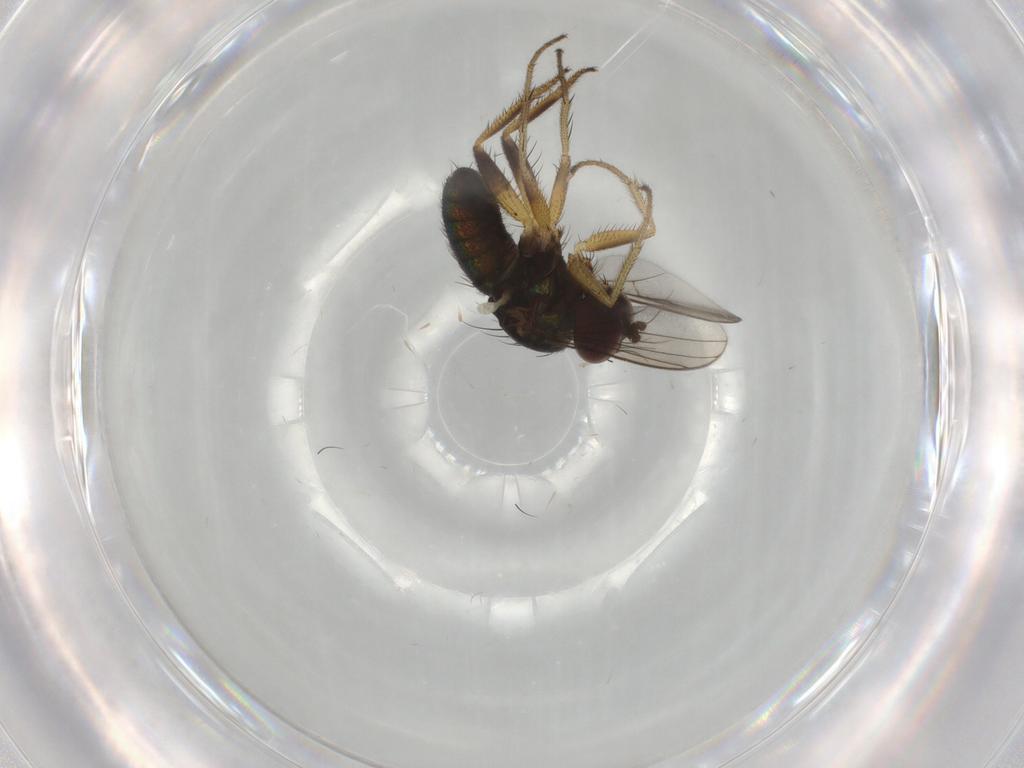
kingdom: Animalia
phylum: Arthropoda
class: Insecta
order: Diptera
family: Dolichopodidae
